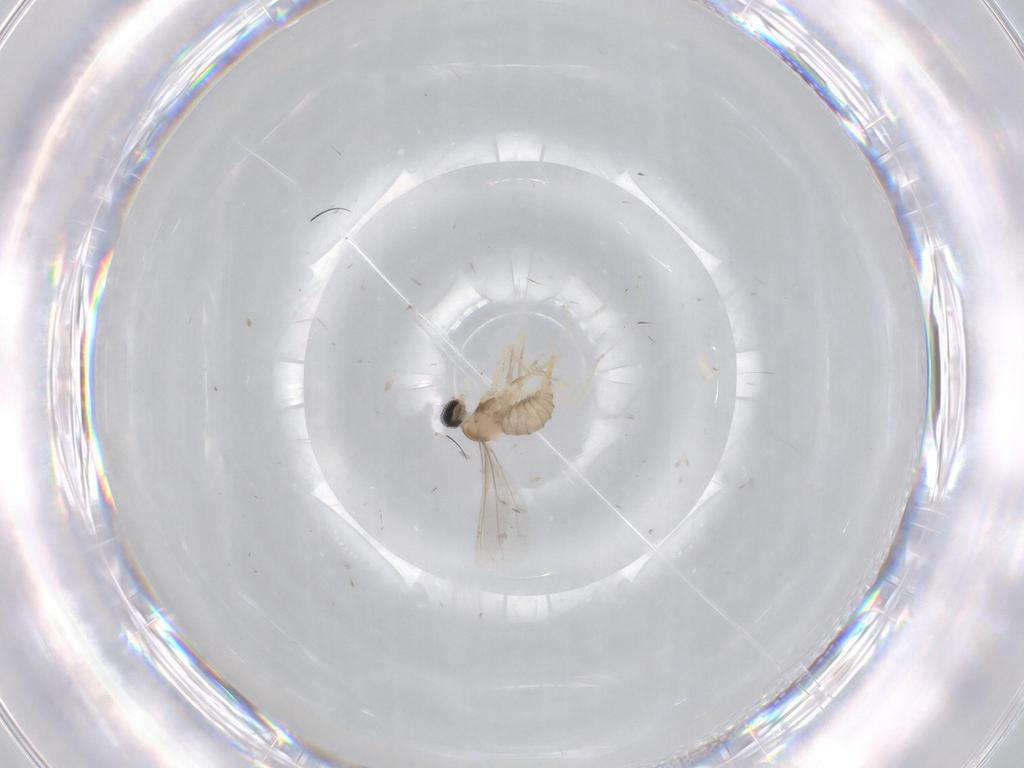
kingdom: Animalia
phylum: Arthropoda
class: Insecta
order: Diptera
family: Cecidomyiidae
